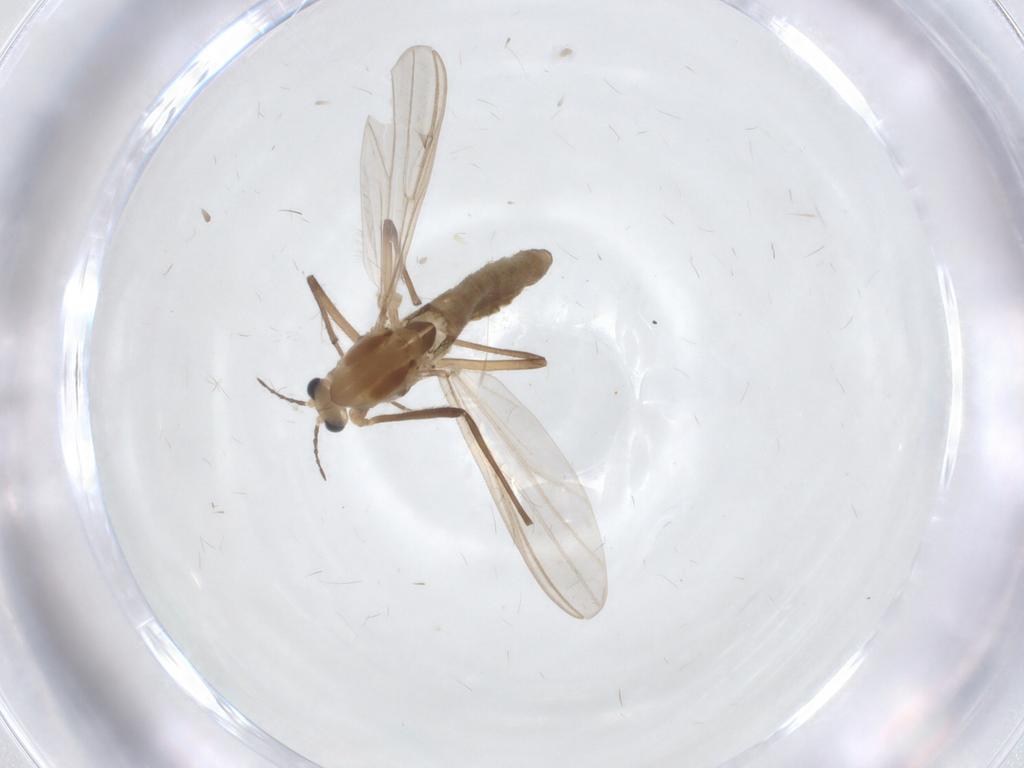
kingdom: Animalia
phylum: Arthropoda
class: Insecta
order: Diptera
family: Chironomidae
